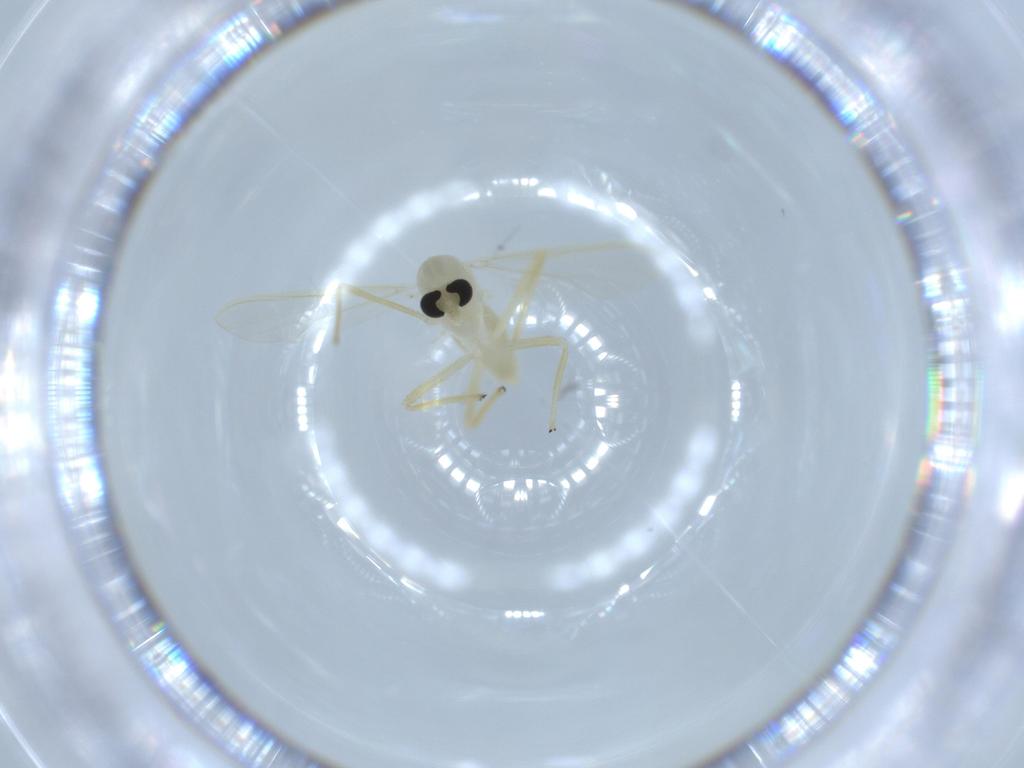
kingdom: Animalia
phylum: Arthropoda
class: Insecta
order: Diptera
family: Chironomidae
